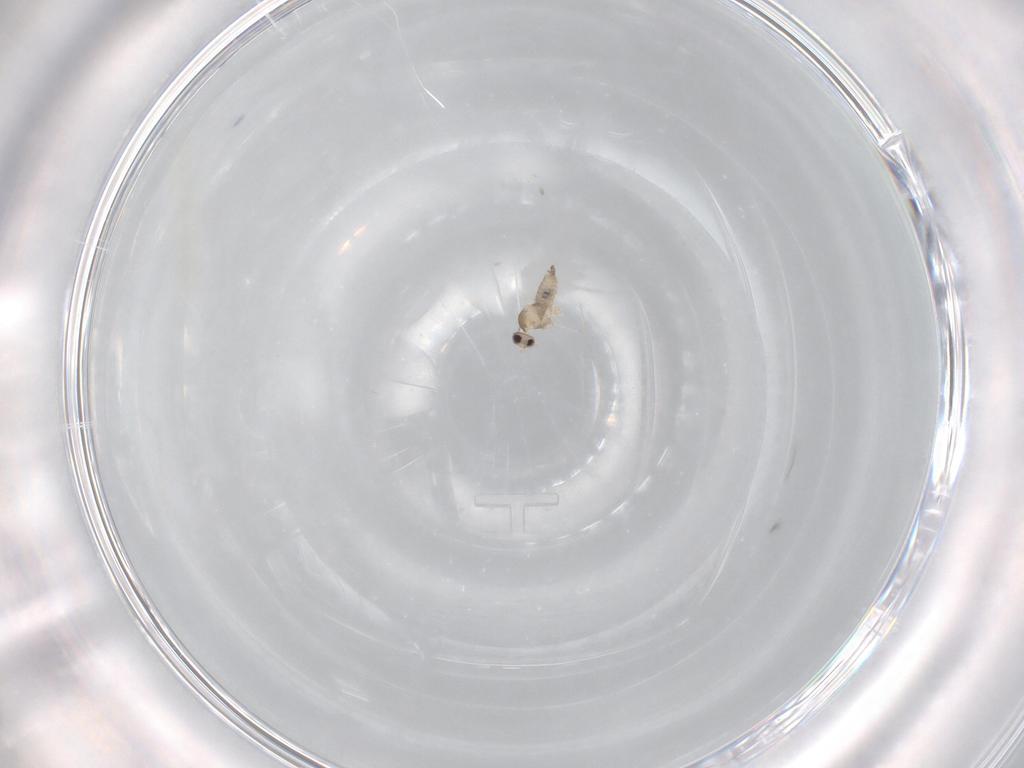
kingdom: Animalia
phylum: Arthropoda
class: Insecta
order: Diptera
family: Cecidomyiidae
